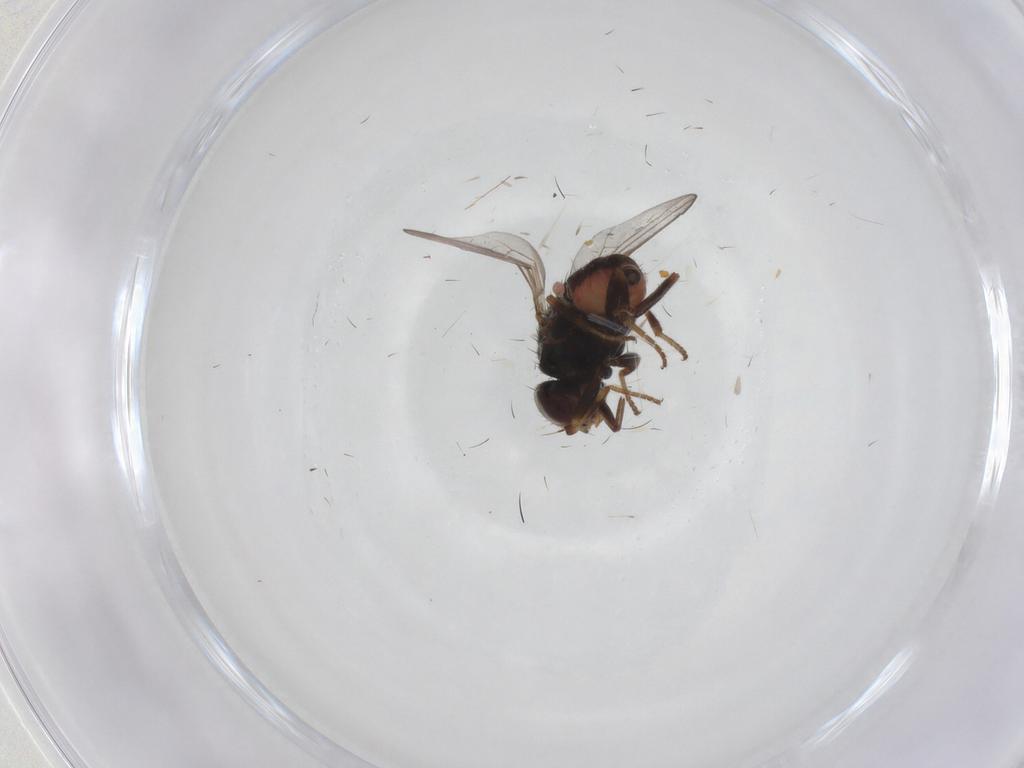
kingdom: Animalia
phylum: Arthropoda
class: Insecta
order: Diptera
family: Chloropidae
